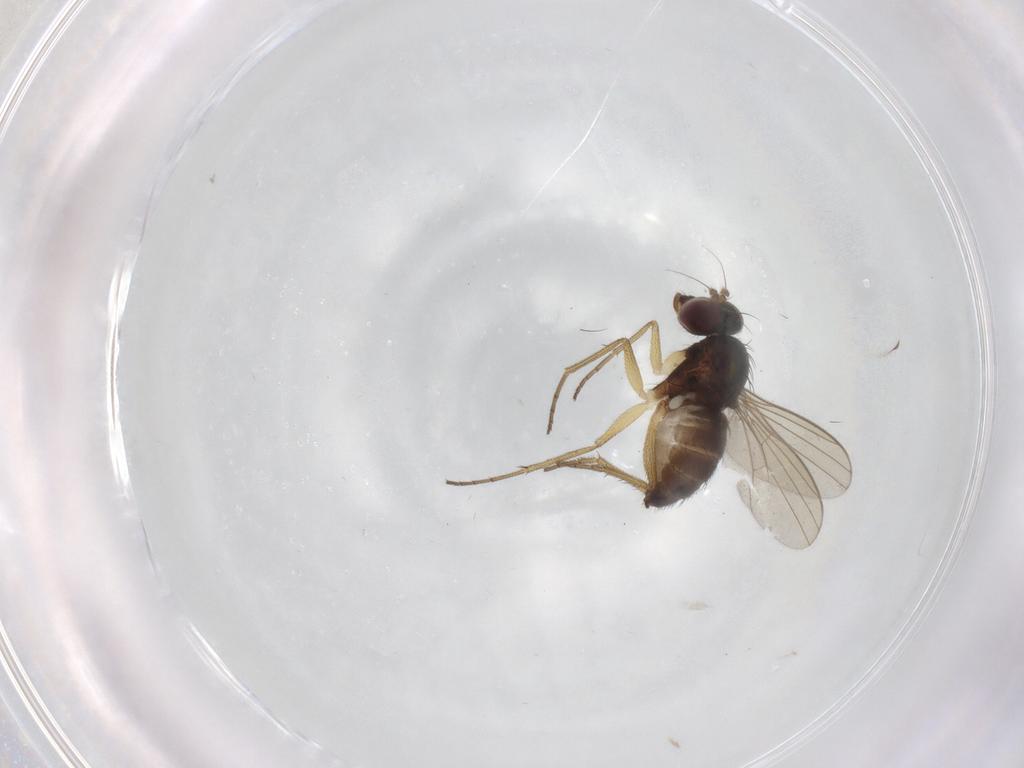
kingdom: Animalia
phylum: Arthropoda
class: Insecta
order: Diptera
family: Dolichopodidae
